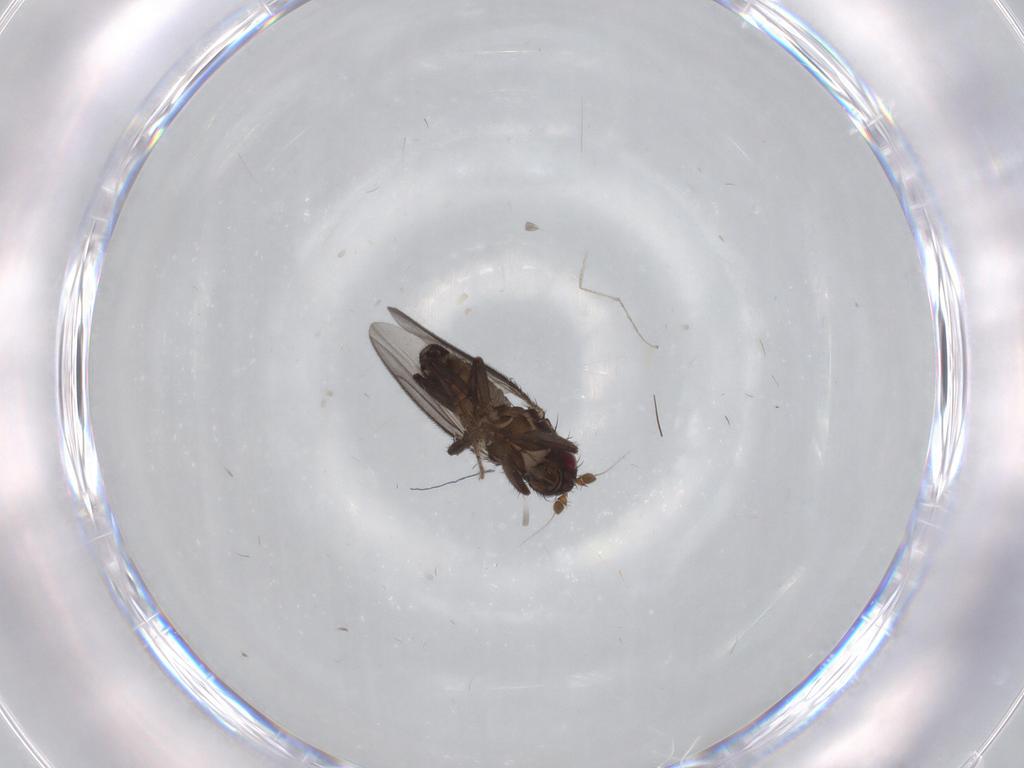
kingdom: Animalia
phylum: Arthropoda
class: Insecta
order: Diptera
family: Sphaeroceridae
